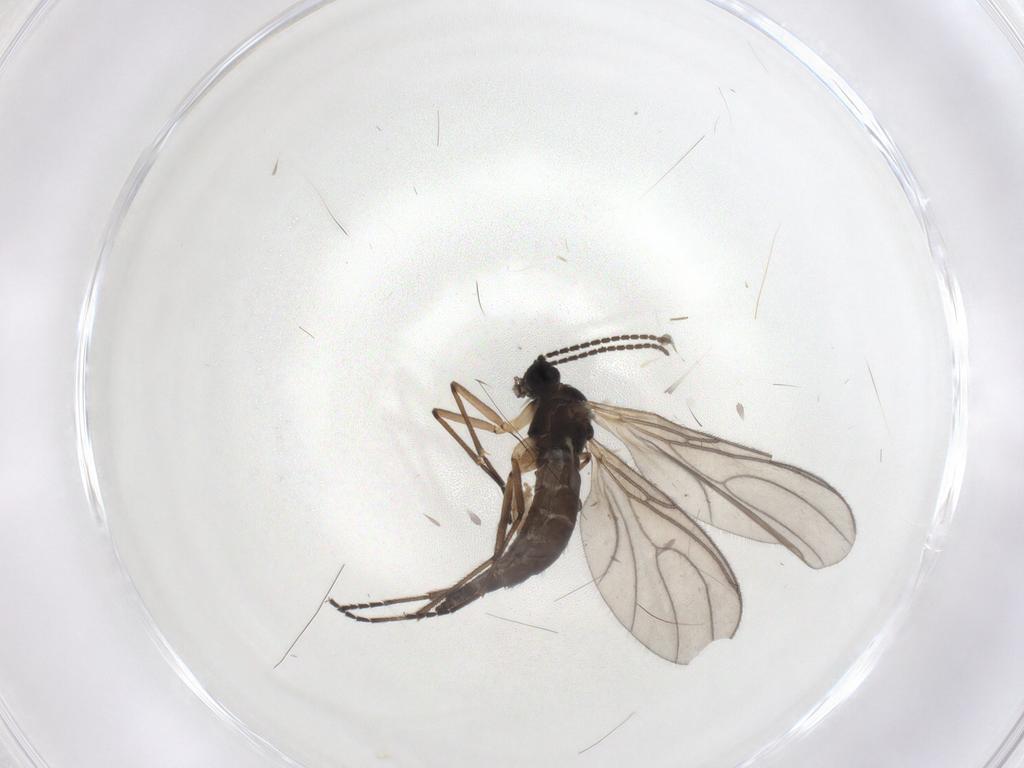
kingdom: Animalia
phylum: Arthropoda
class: Insecta
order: Diptera
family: Sciaridae
